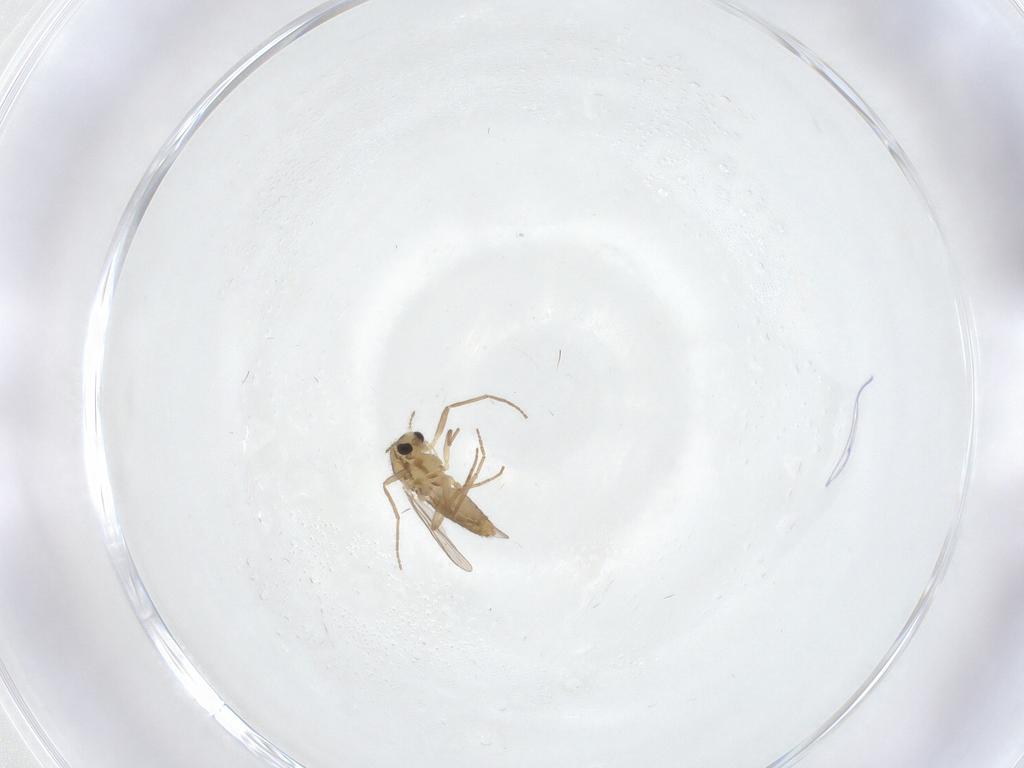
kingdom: Animalia
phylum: Arthropoda
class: Insecta
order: Diptera
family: Chironomidae
